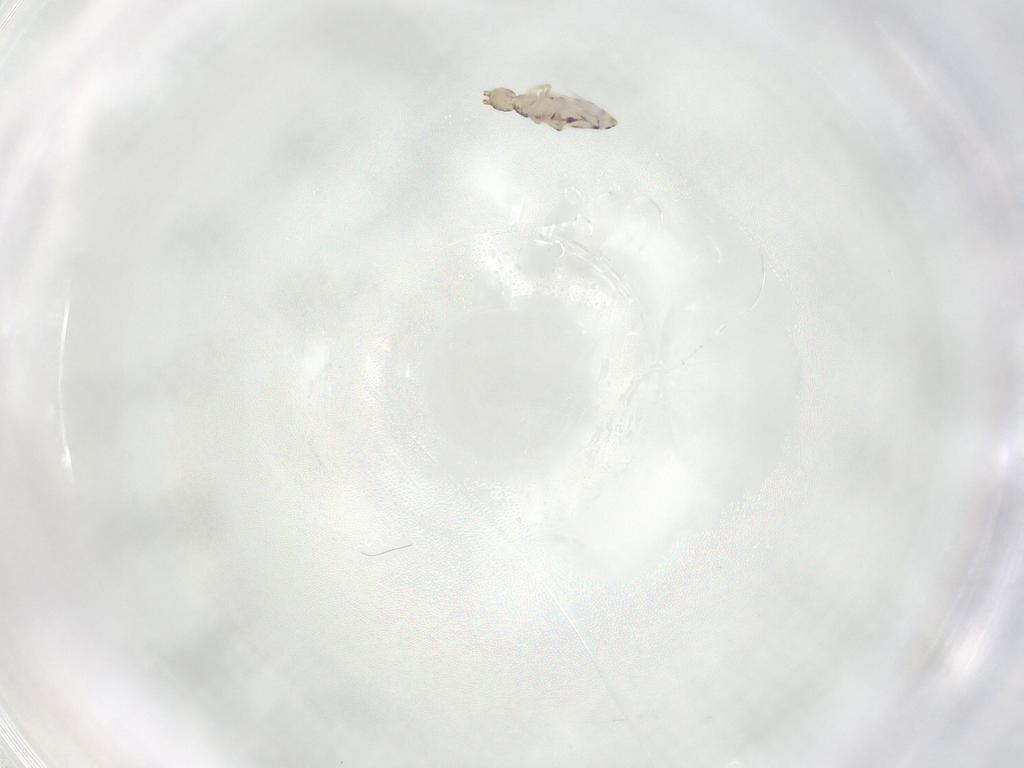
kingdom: Animalia
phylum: Arthropoda
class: Collembola
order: Entomobryomorpha
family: Entomobryidae
